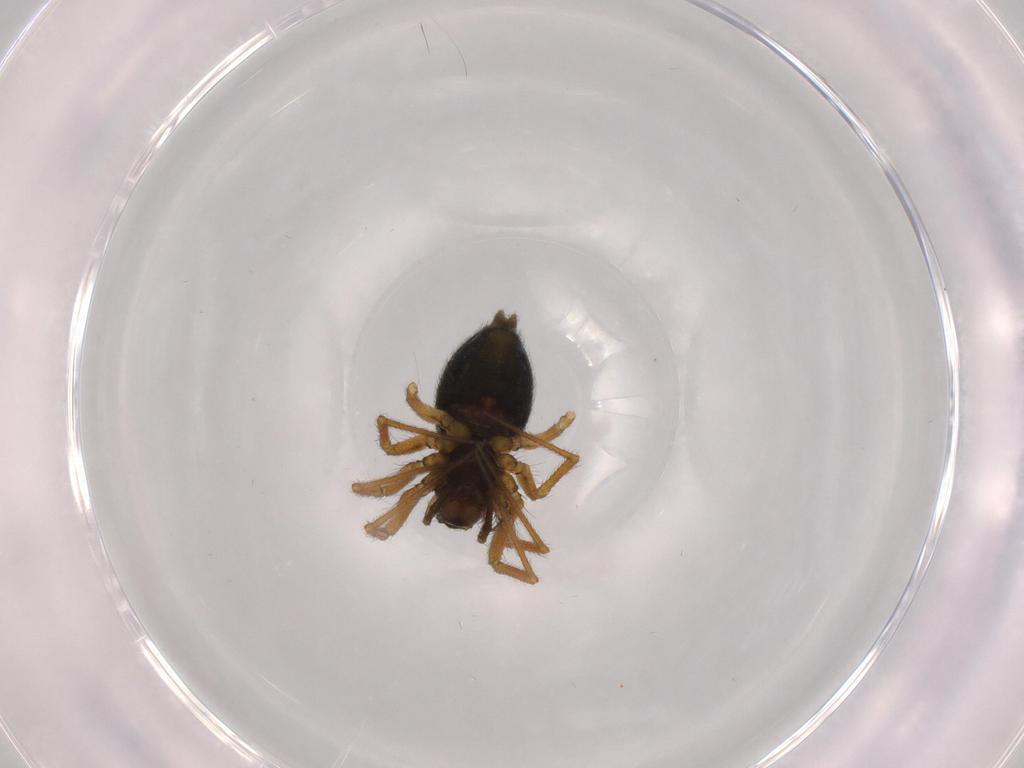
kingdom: Animalia
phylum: Arthropoda
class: Arachnida
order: Araneae
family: Linyphiidae
